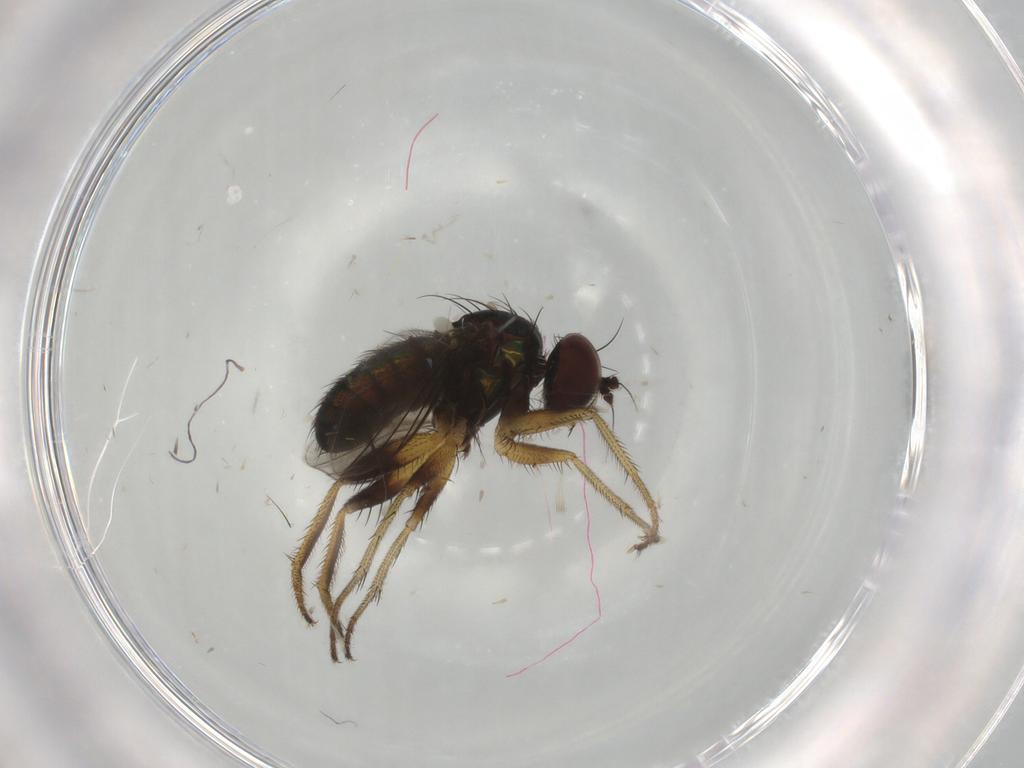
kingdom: Animalia
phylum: Arthropoda
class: Insecta
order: Diptera
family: Dolichopodidae
